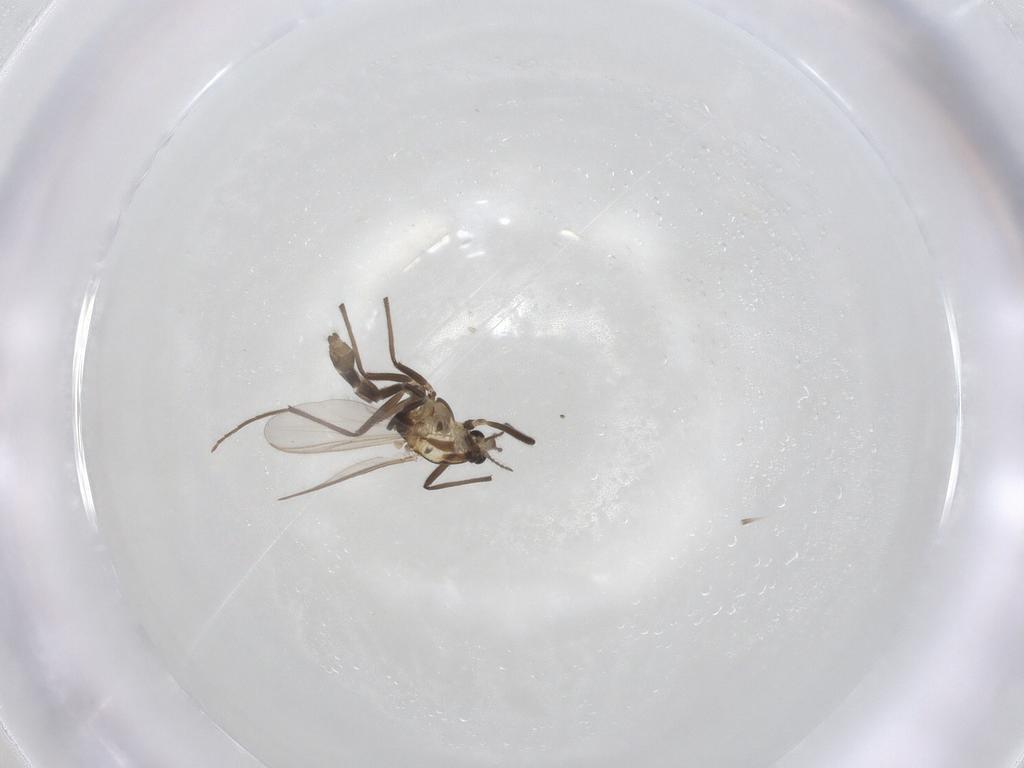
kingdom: Animalia
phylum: Arthropoda
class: Insecta
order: Diptera
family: Chironomidae
